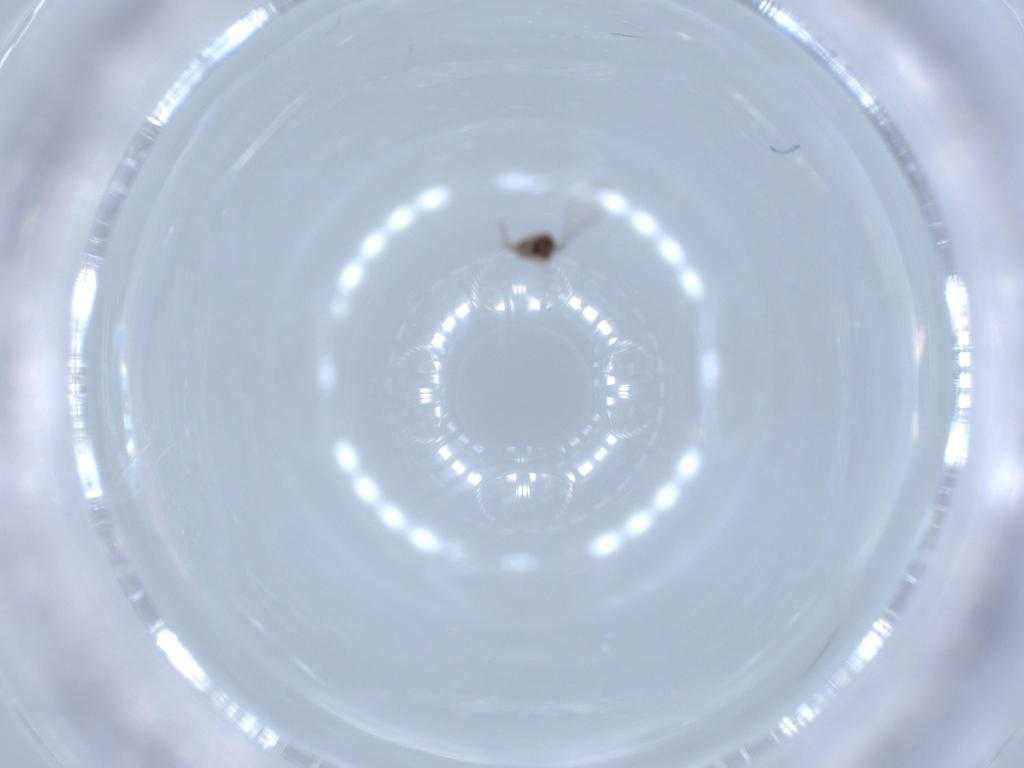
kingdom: Animalia
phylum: Arthropoda
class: Insecta
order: Diptera
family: Cecidomyiidae
